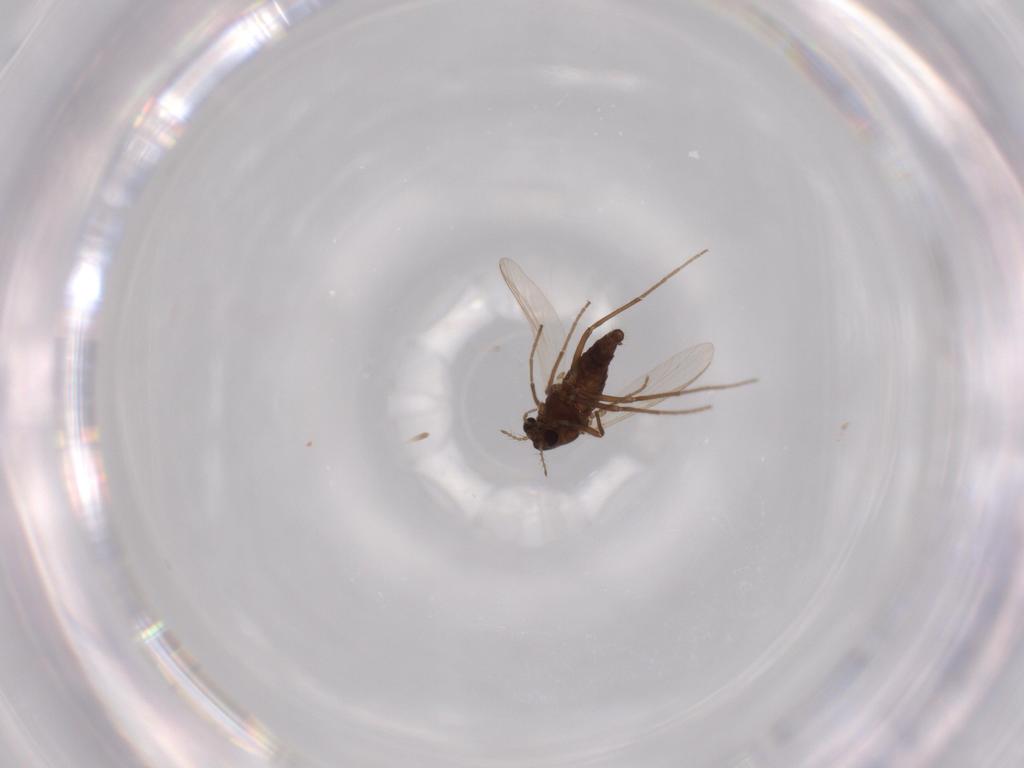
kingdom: Animalia
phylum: Arthropoda
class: Insecta
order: Diptera
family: Chironomidae
